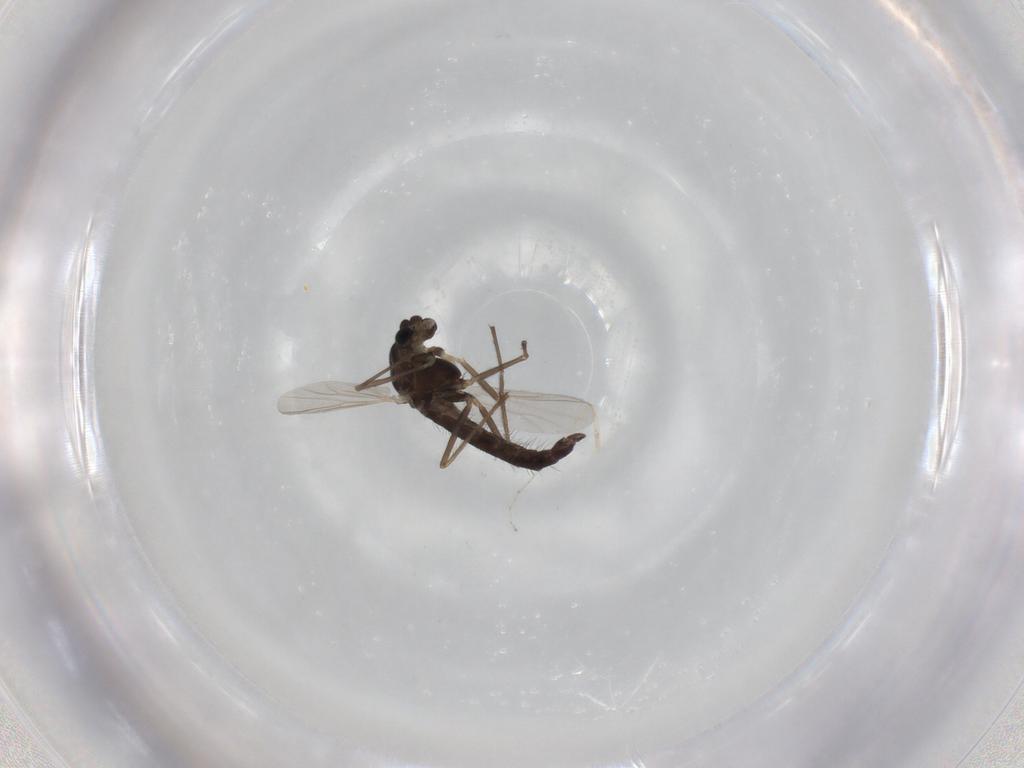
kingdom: Animalia
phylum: Arthropoda
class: Insecta
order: Diptera
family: Chironomidae
